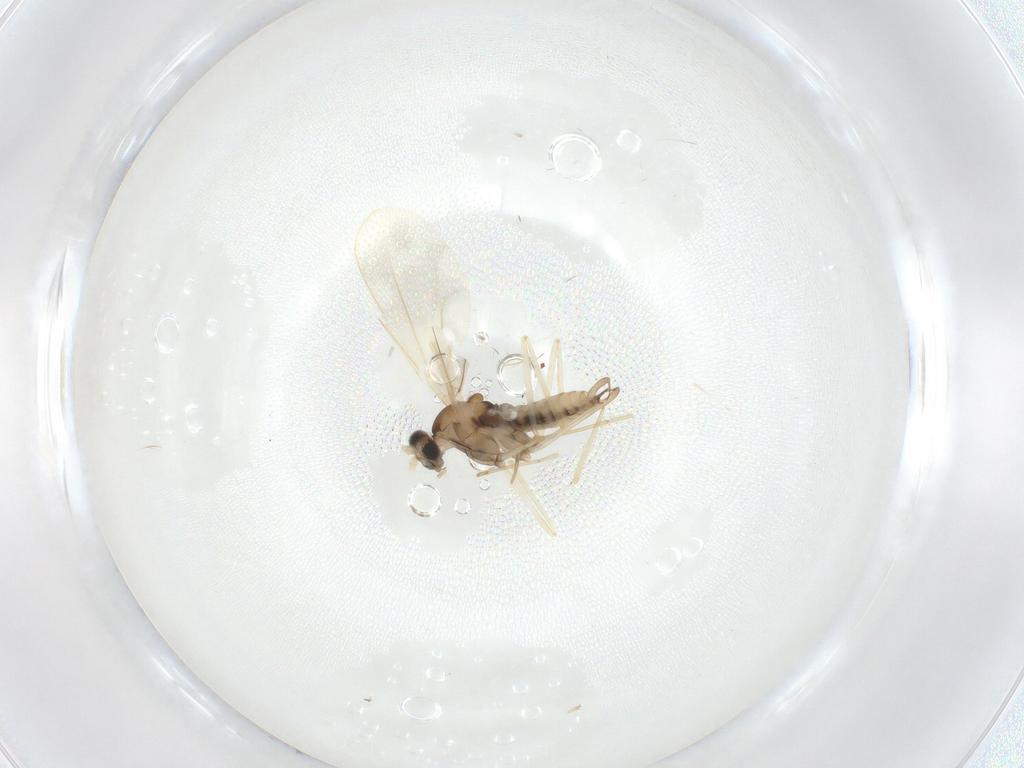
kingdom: Animalia
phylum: Arthropoda
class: Insecta
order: Diptera
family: Cecidomyiidae
